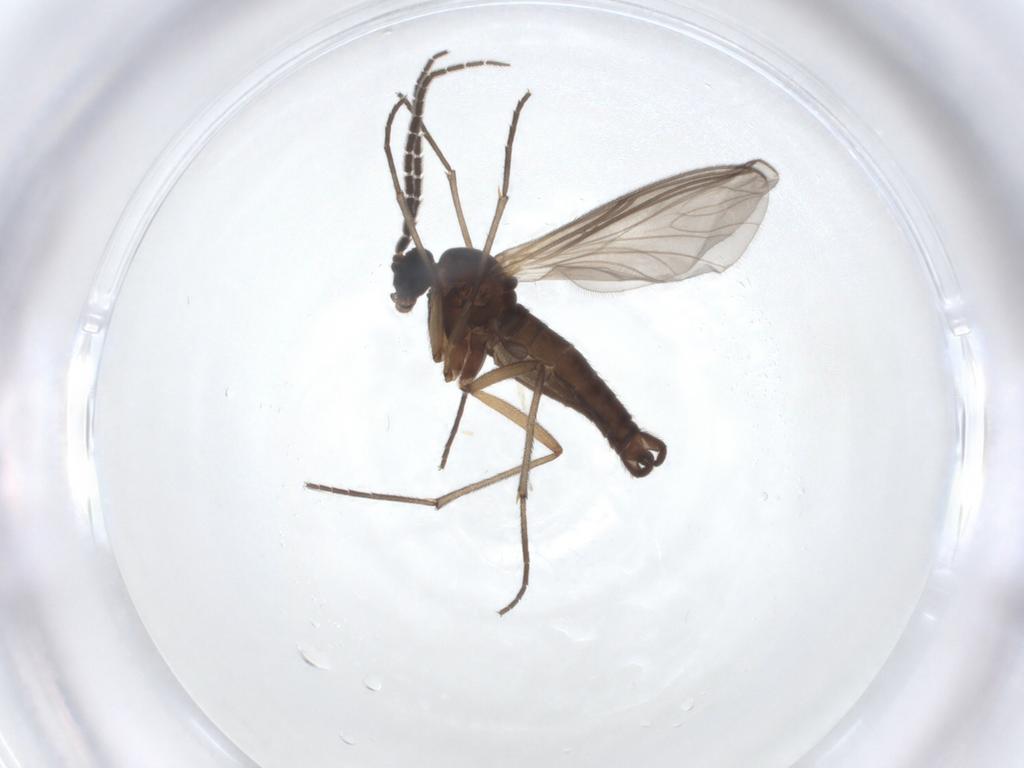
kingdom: Animalia
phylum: Arthropoda
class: Insecta
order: Diptera
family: Sciaridae
